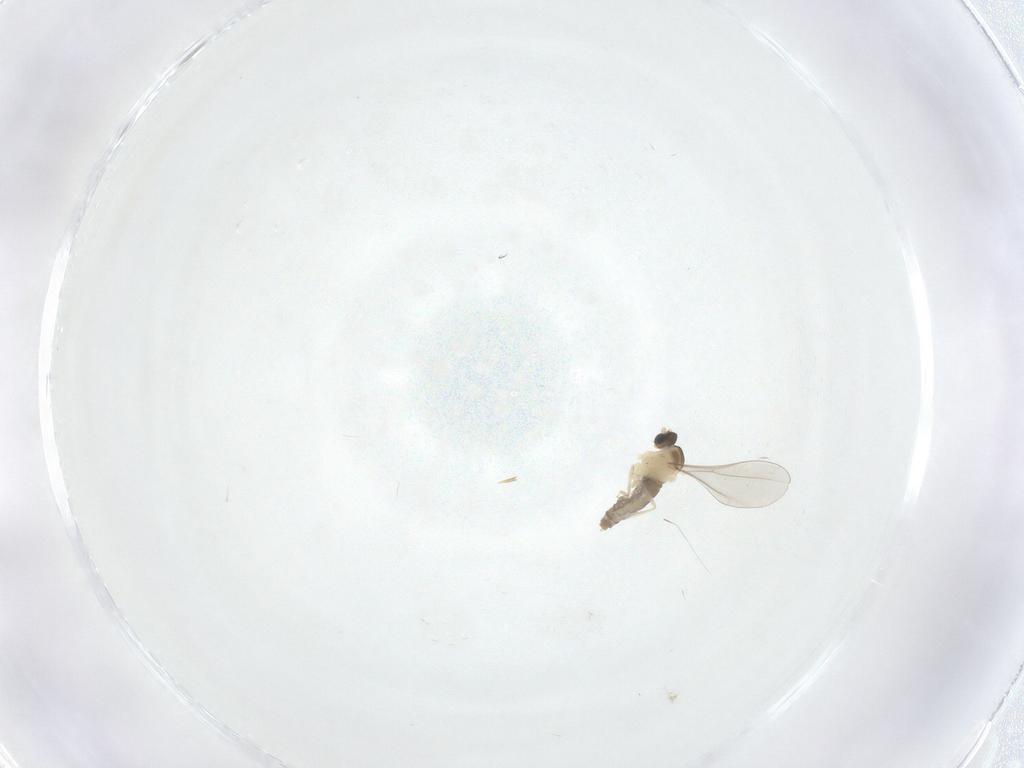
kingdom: Animalia
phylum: Arthropoda
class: Insecta
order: Diptera
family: Cecidomyiidae
